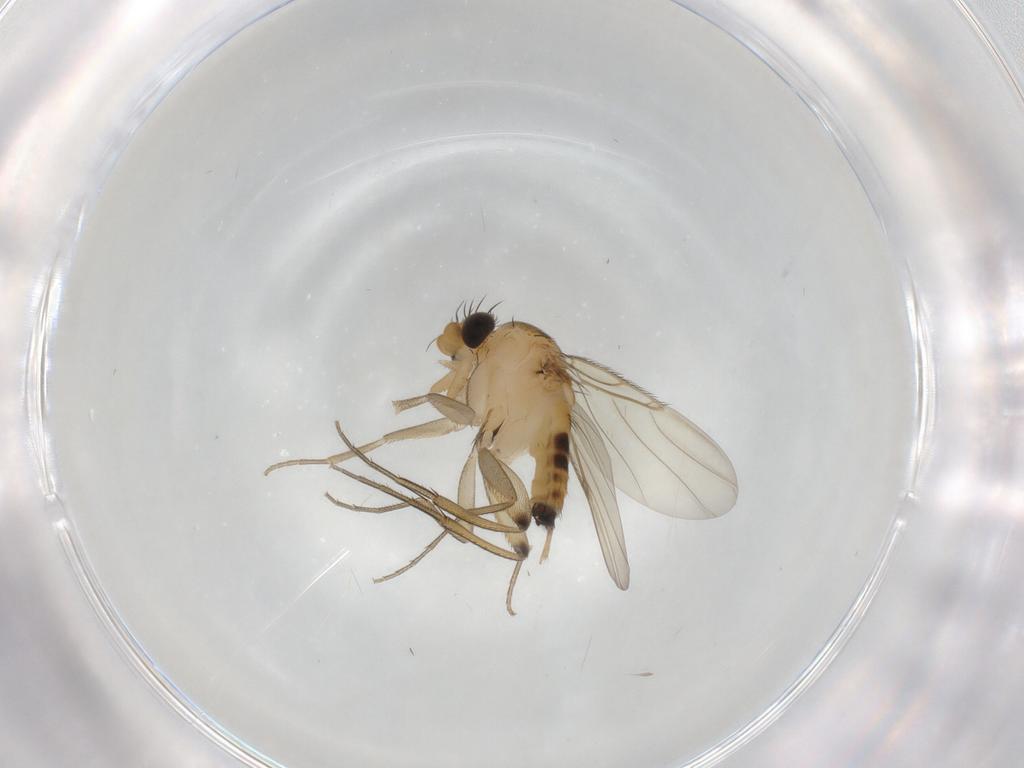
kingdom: Animalia
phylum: Arthropoda
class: Insecta
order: Diptera
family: Phoridae
